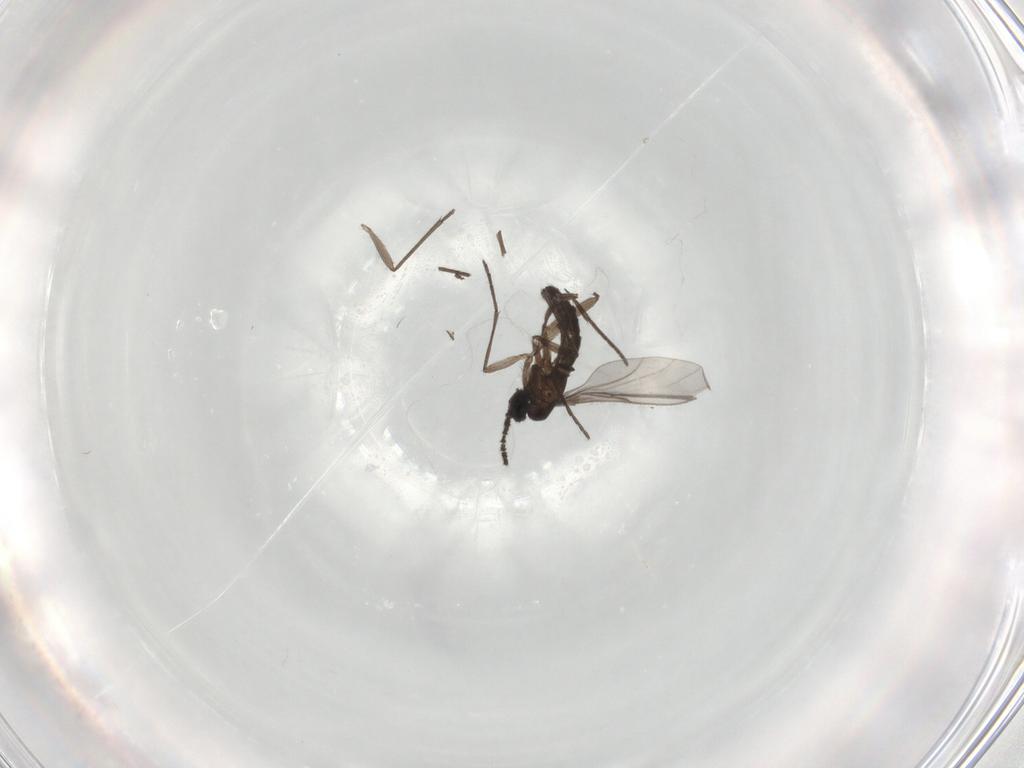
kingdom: Animalia
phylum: Arthropoda
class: Insecta
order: Diptera
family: Sciaridae
